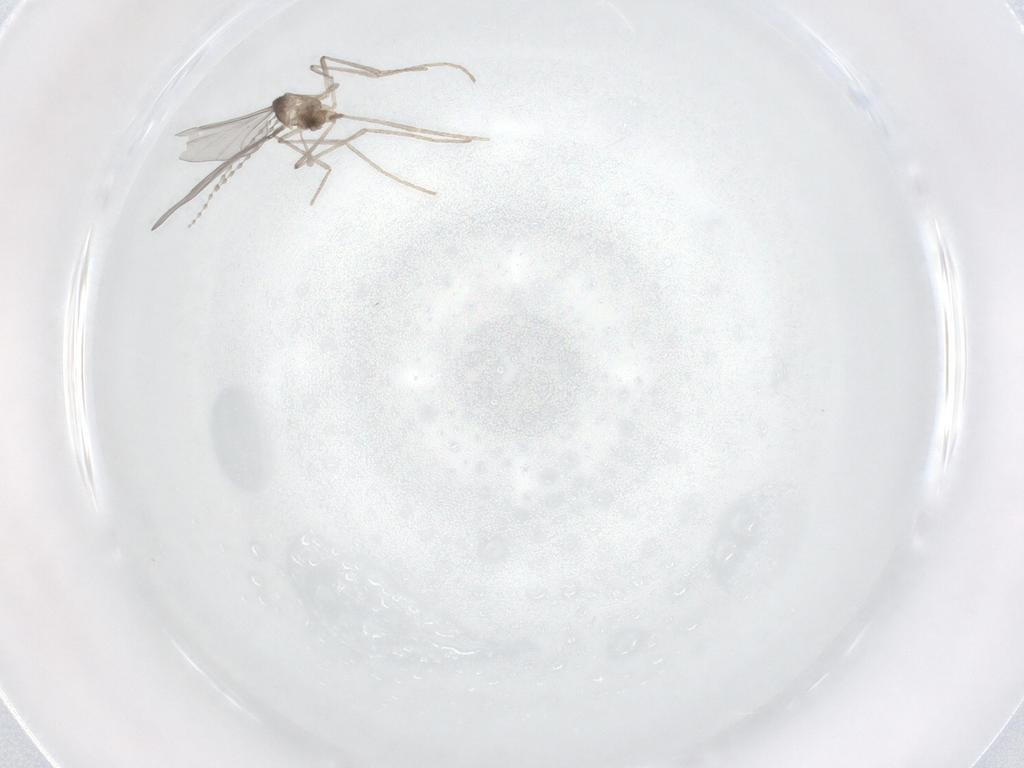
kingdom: Animalia
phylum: Arthropoda
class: Insecta
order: Diptera
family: Cecidomyiidae
